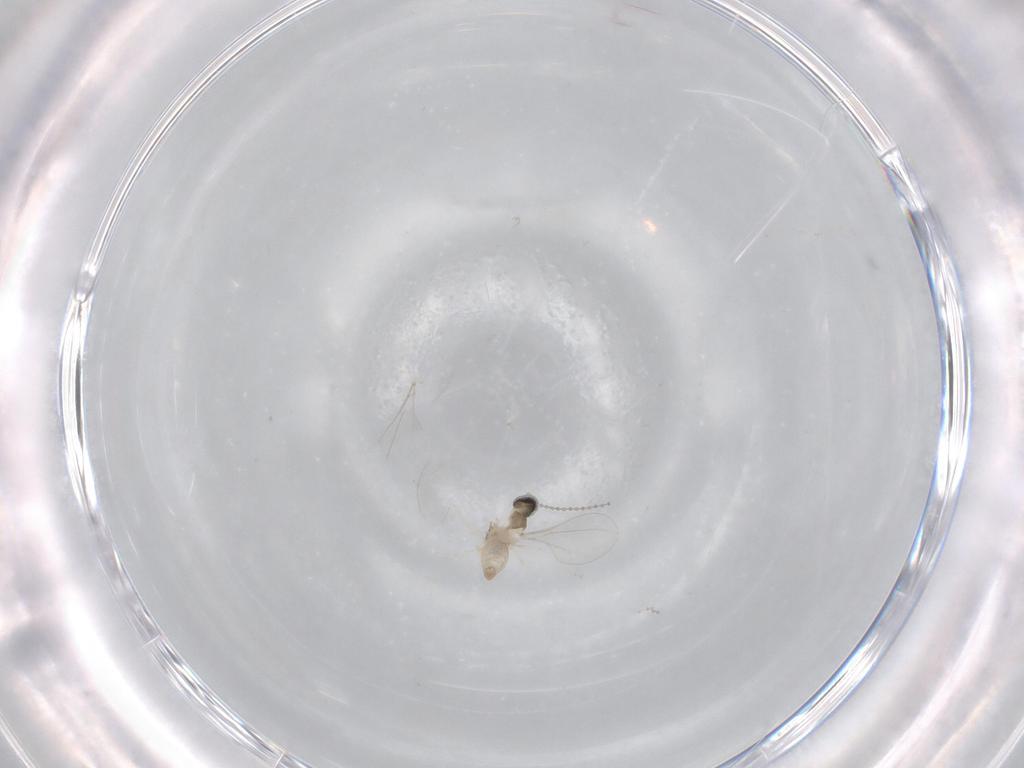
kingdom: Animalia
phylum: Arthropoda
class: Insecta
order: Diptera
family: Cecidomyiidae
